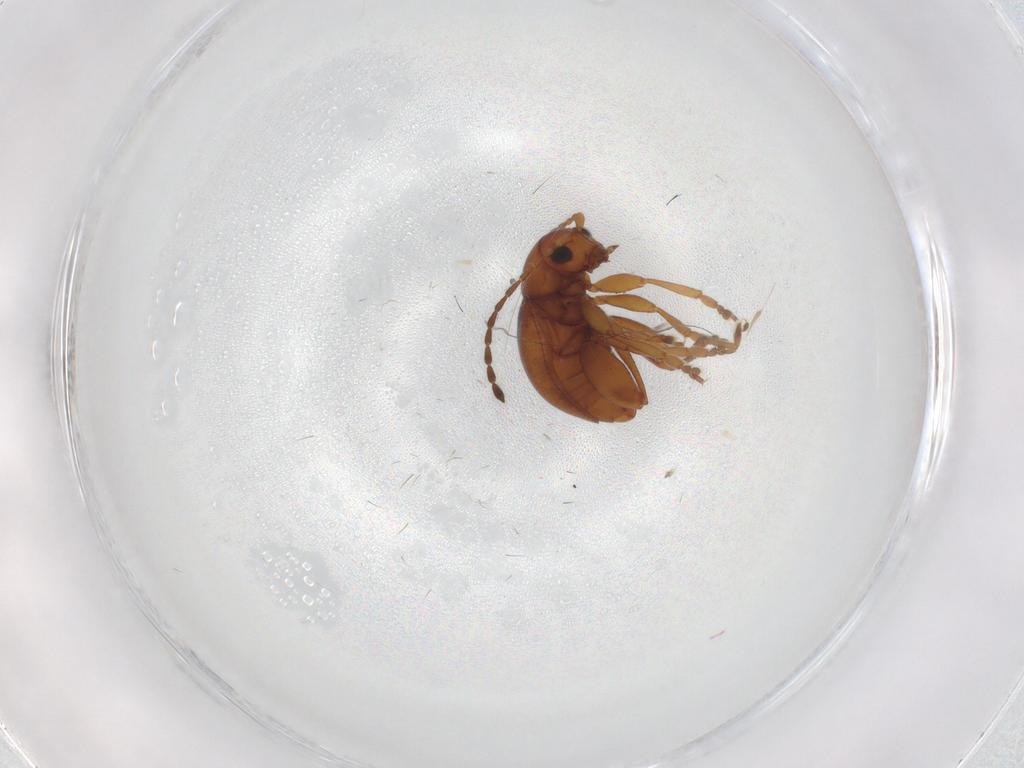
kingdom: Animalia
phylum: Arthropoda
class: Insecta
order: Coleoptera
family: Chrysomelidae
